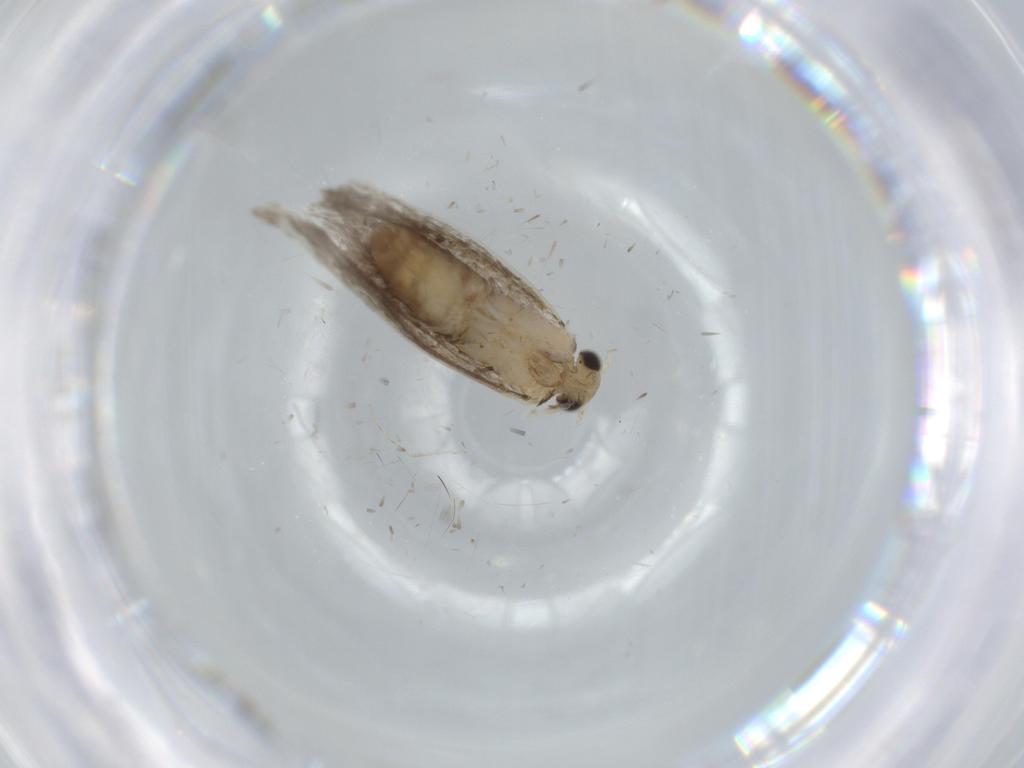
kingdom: Animalia
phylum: Arthropoda
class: Insecta
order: Lepidoptera
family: Tineidae
